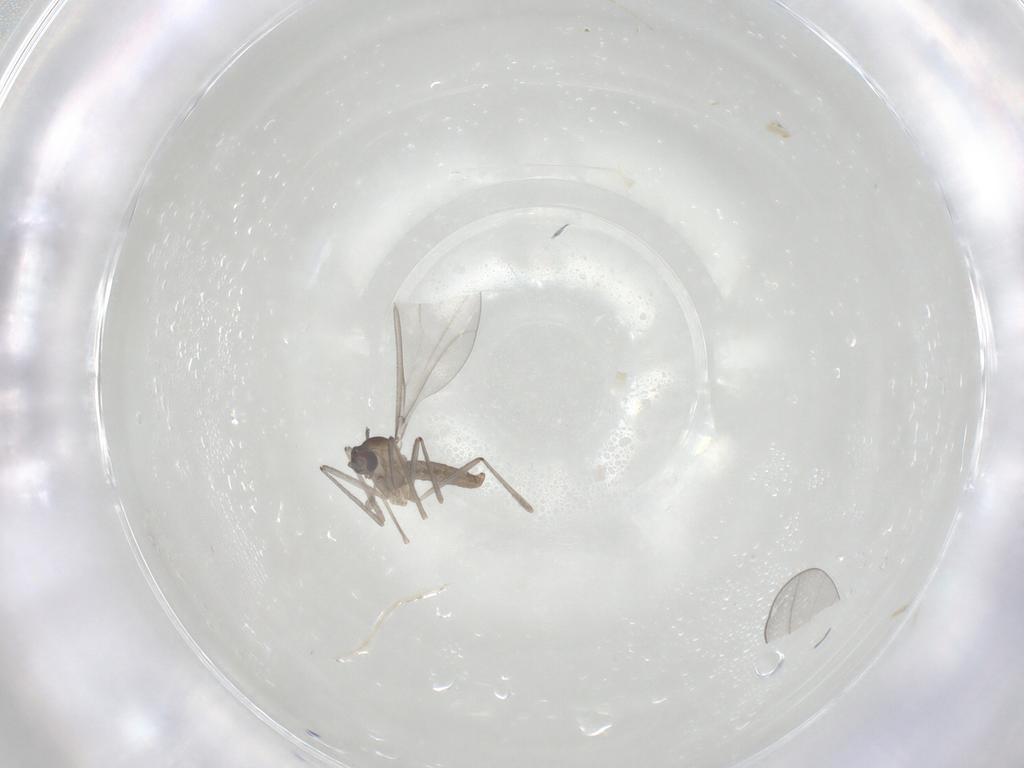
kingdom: Animalia
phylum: Arthropoda
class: Insecta
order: Diptera
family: Cecidomyiidae
